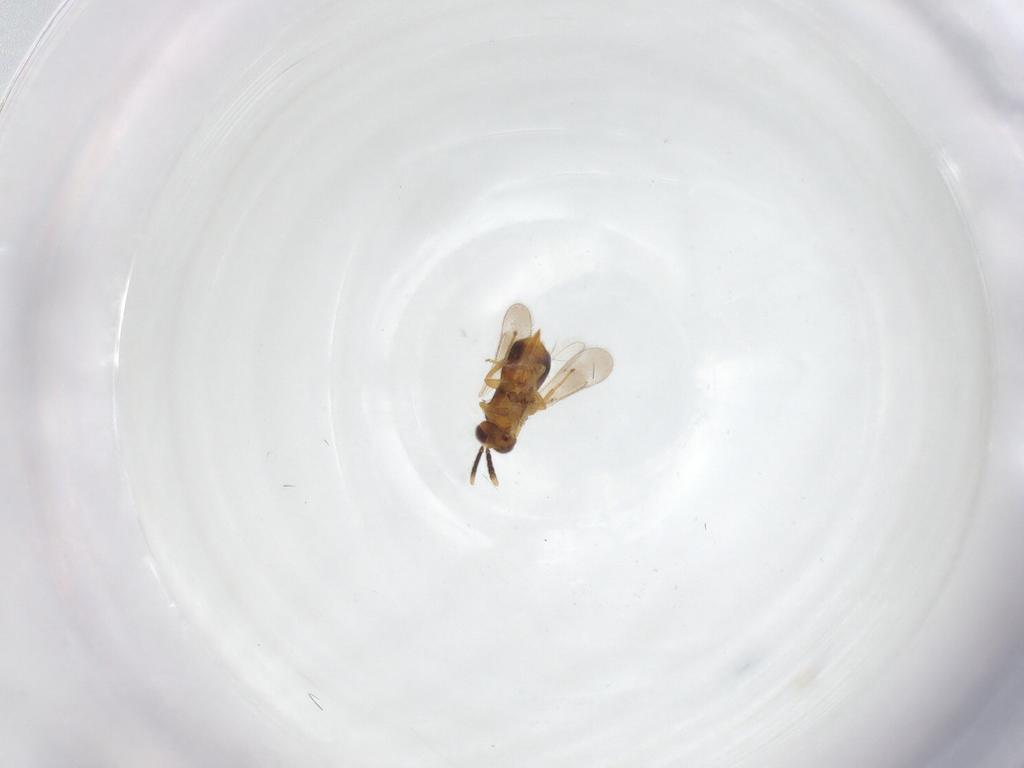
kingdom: Animalia
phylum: Arthropoda
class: Insecta
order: Hymenoptera
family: Aphelinidae
